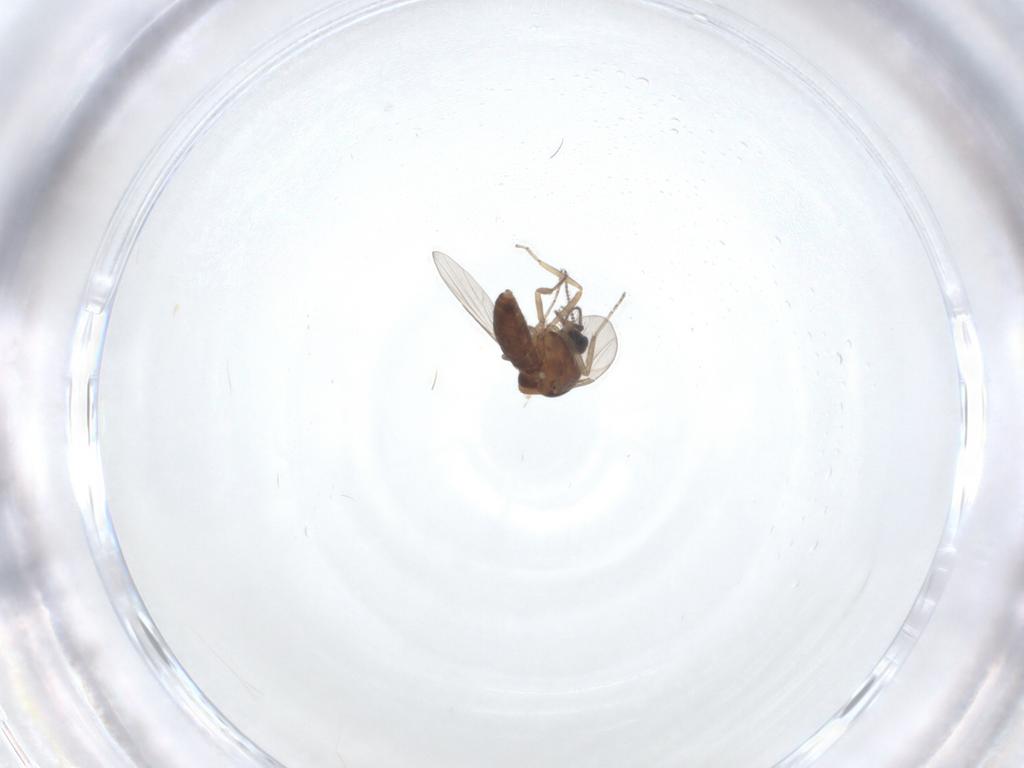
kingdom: Animalia
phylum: Arthropoda
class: Insecta
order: Diptera
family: Ceratopogonidae
